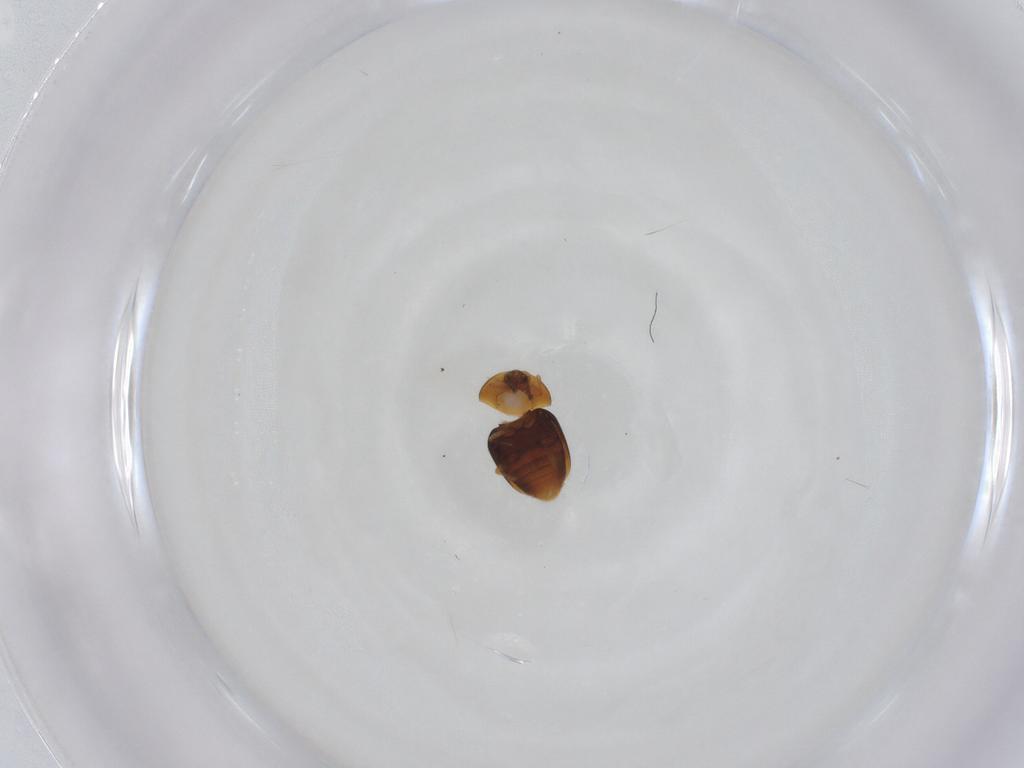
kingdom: Animalia
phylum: Arthropoda
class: Insecta
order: Coleoptera
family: Corylophidae
